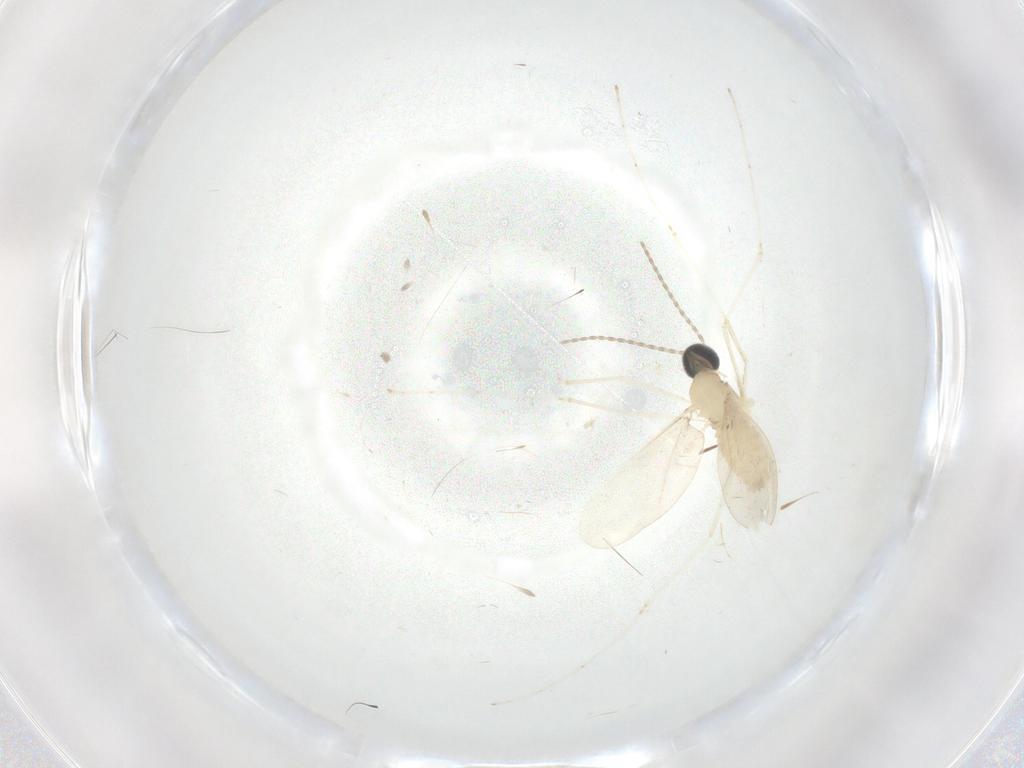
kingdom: Animalia
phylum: Arthropoda
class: Insecta
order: Diptera
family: Cecidomyiidae
